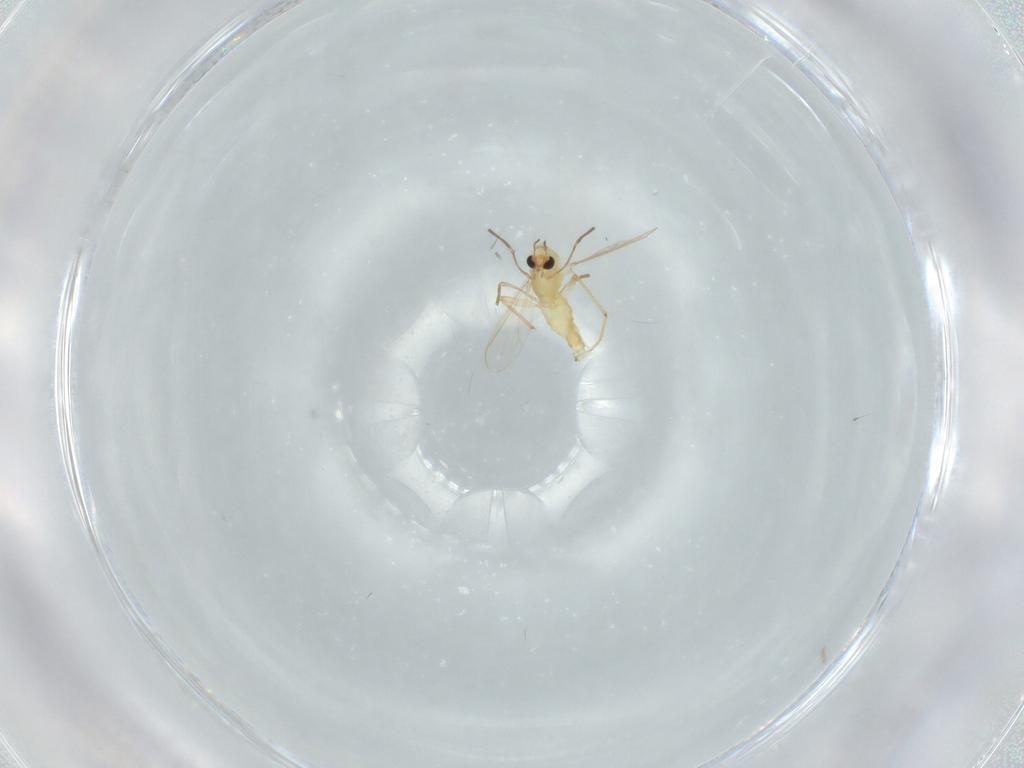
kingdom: Animalia
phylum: Arthropoda
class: Insecta
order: Diptera
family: Chironomidae
